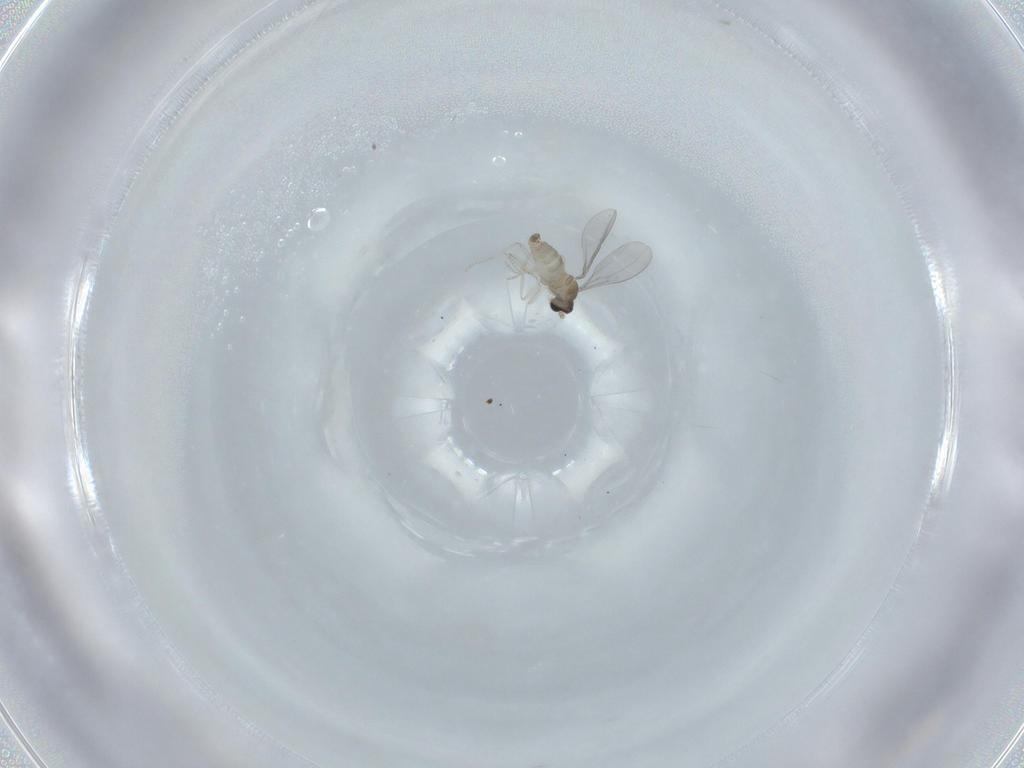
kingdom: Animalia
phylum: Arthropoda
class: Insecta
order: Diptera
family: Cecidomyiidae
